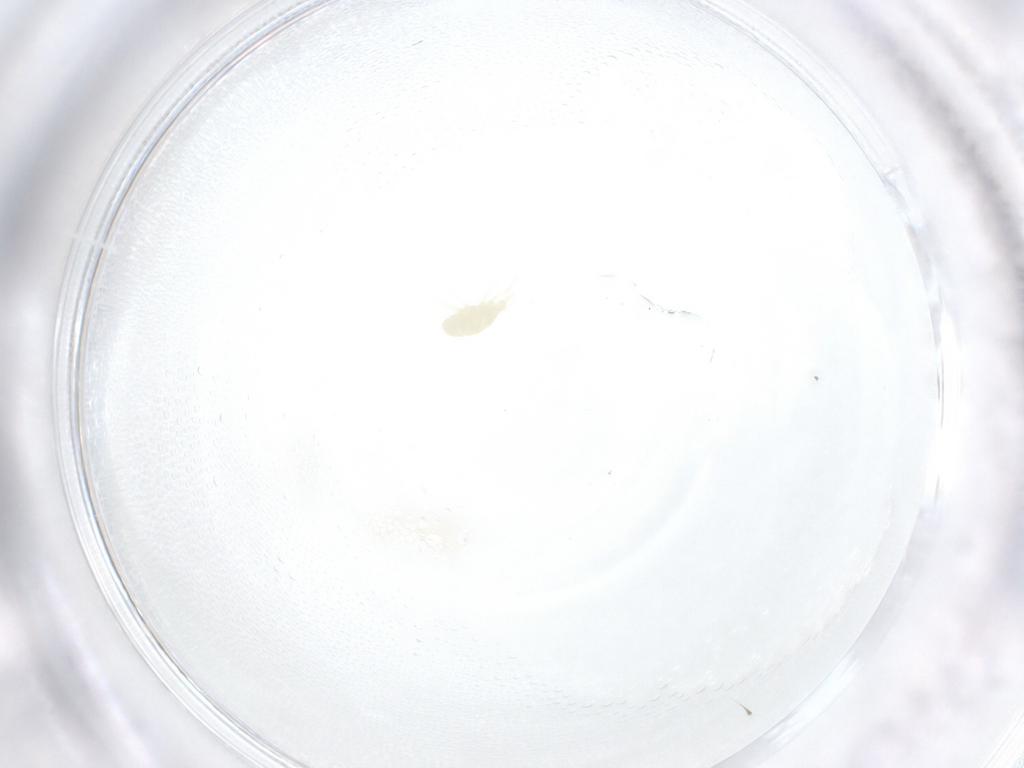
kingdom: Animalia
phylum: Arthropoda
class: Arachnida
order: Trombidiformes
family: Stigmaeidae
